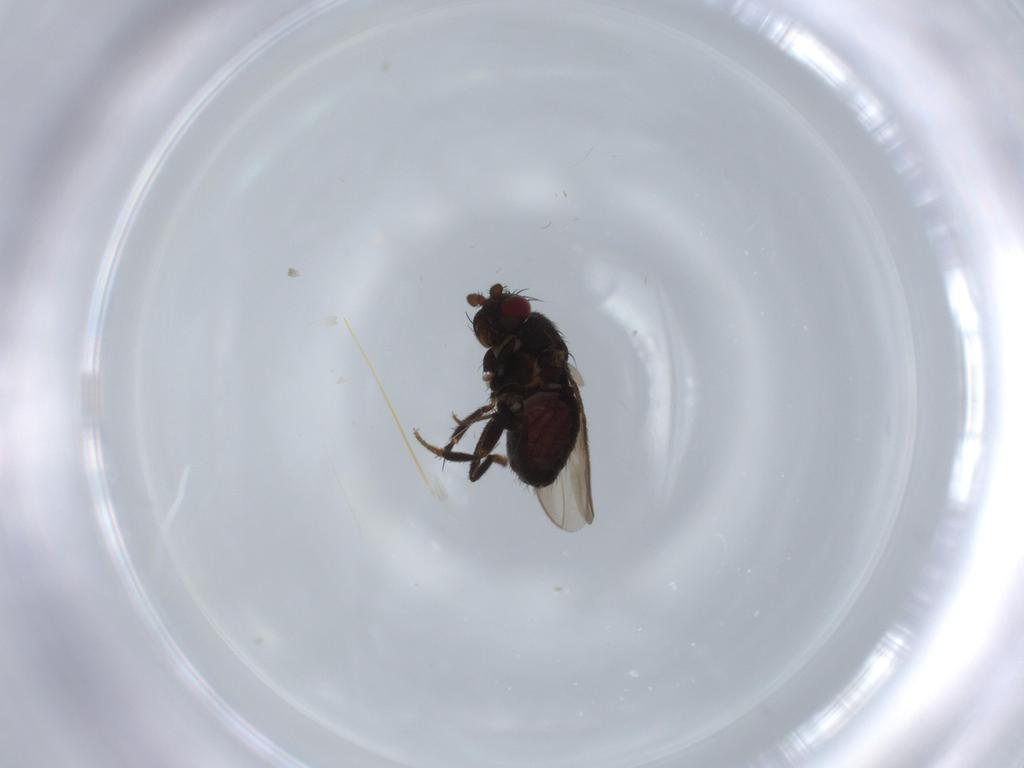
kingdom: Animalia
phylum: Arthropoda
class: Insecta
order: Diptera
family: Sphaeroceridae
